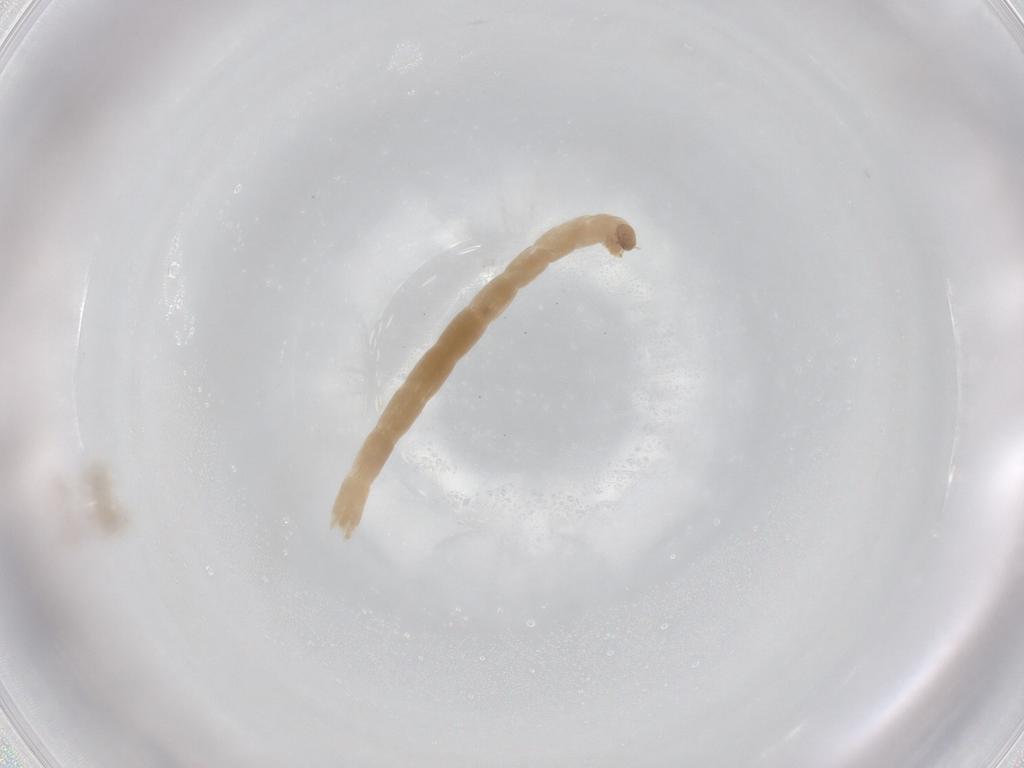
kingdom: Animalia
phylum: Arthropoda
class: Insecta
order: Diptera
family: Chironomidae
